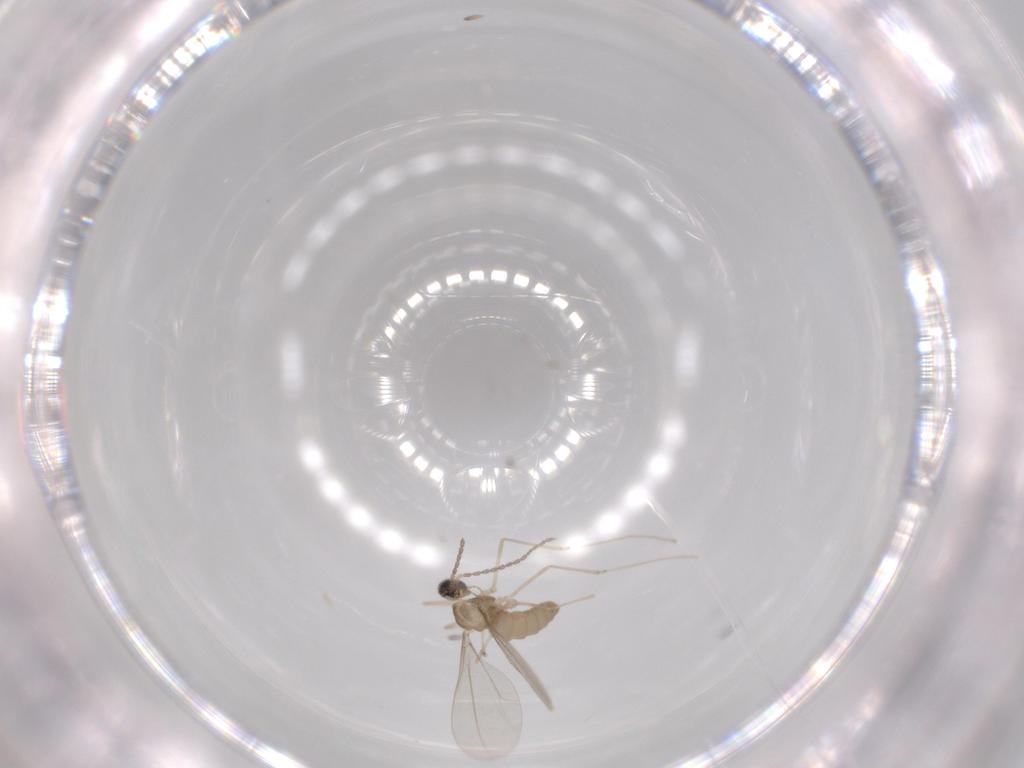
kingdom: Animalia
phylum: Arthropoda
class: Insecta
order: Diptera
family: Cecidomyiidae
